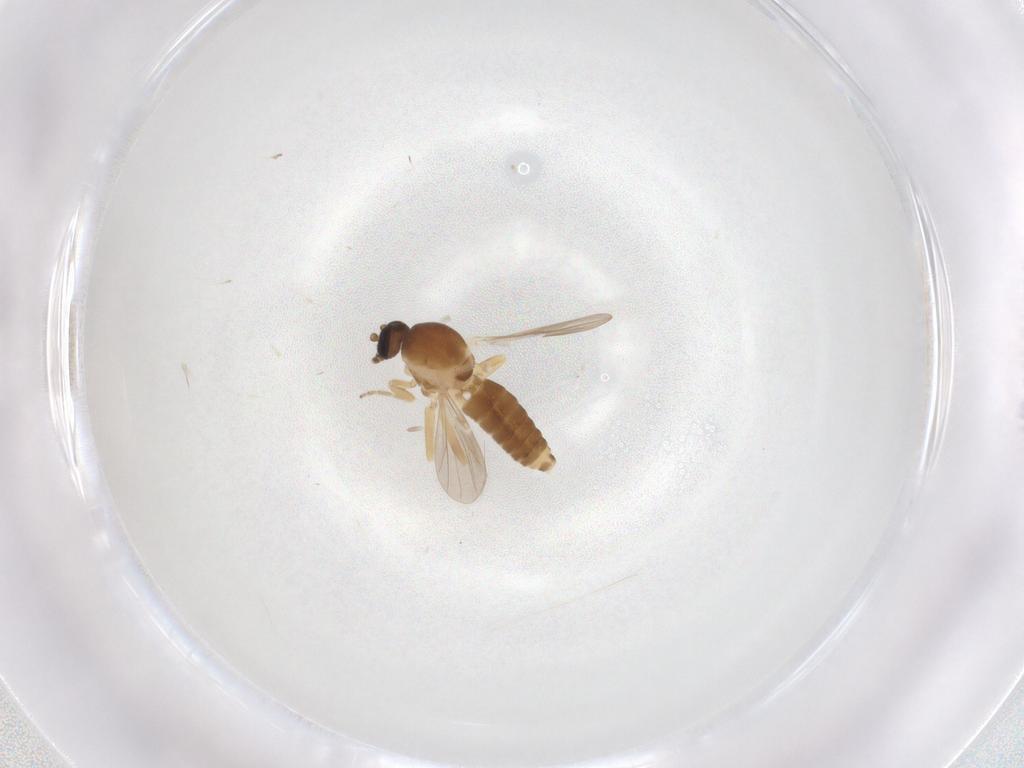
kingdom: Animalia
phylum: Arthropoda
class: Insecta
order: Diptera
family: Ceratopogonidae
